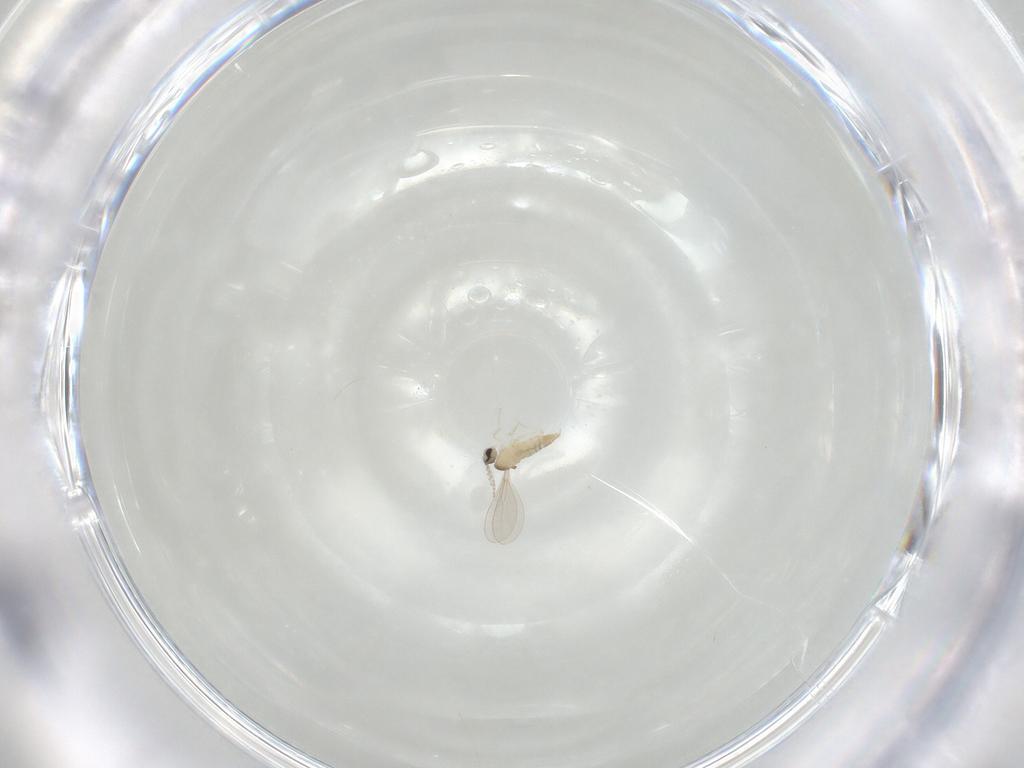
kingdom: Animalia
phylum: Arthropoda
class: Insecta
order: Diptera
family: Cecidomyiidae
